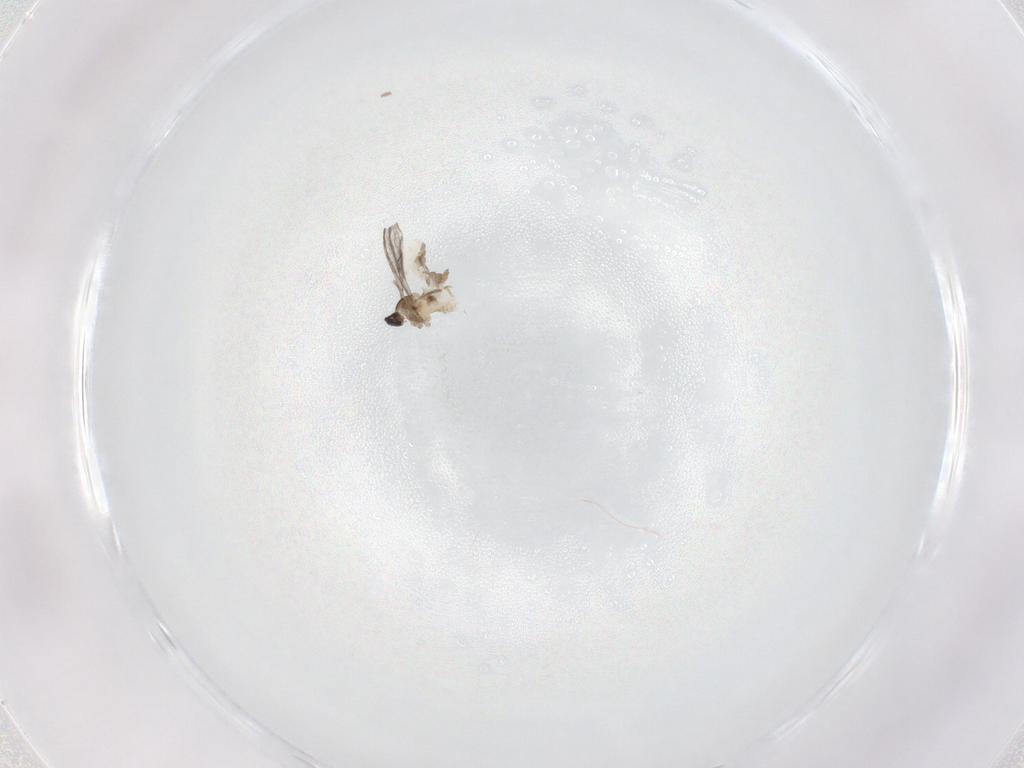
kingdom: Animalia
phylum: Arthropoda
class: Insecta
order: Diptera
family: Cecidomyiidae
